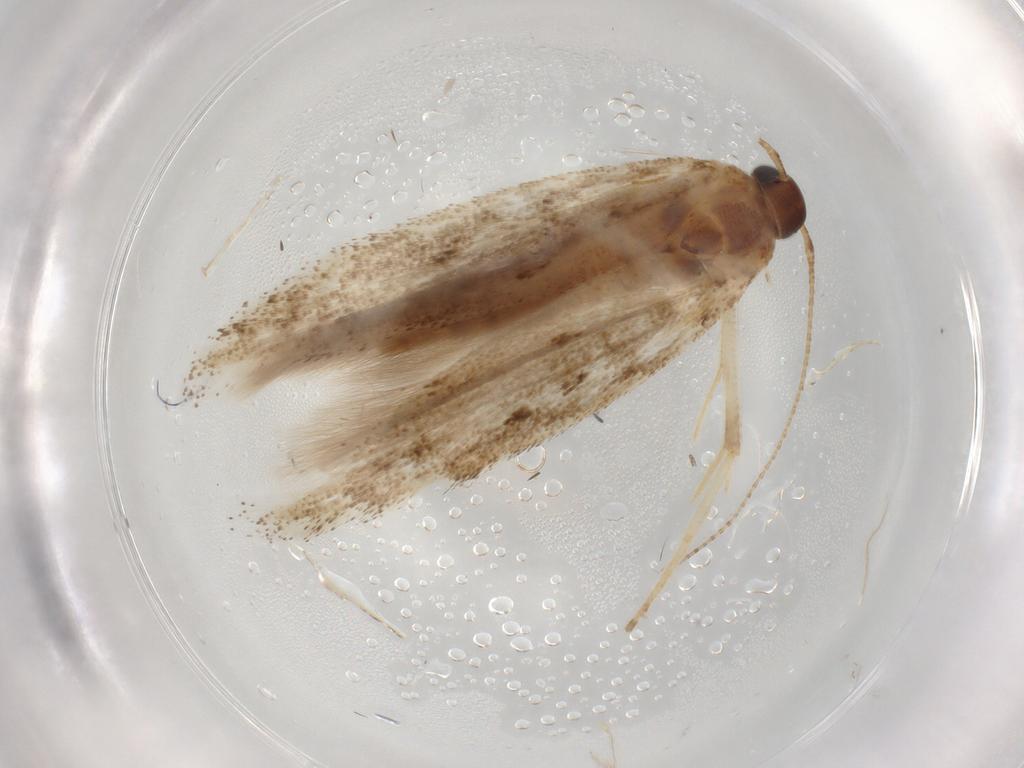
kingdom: Animalia
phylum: Arthropoda
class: Insecta
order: Lepidoptera
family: Gelechiidae
